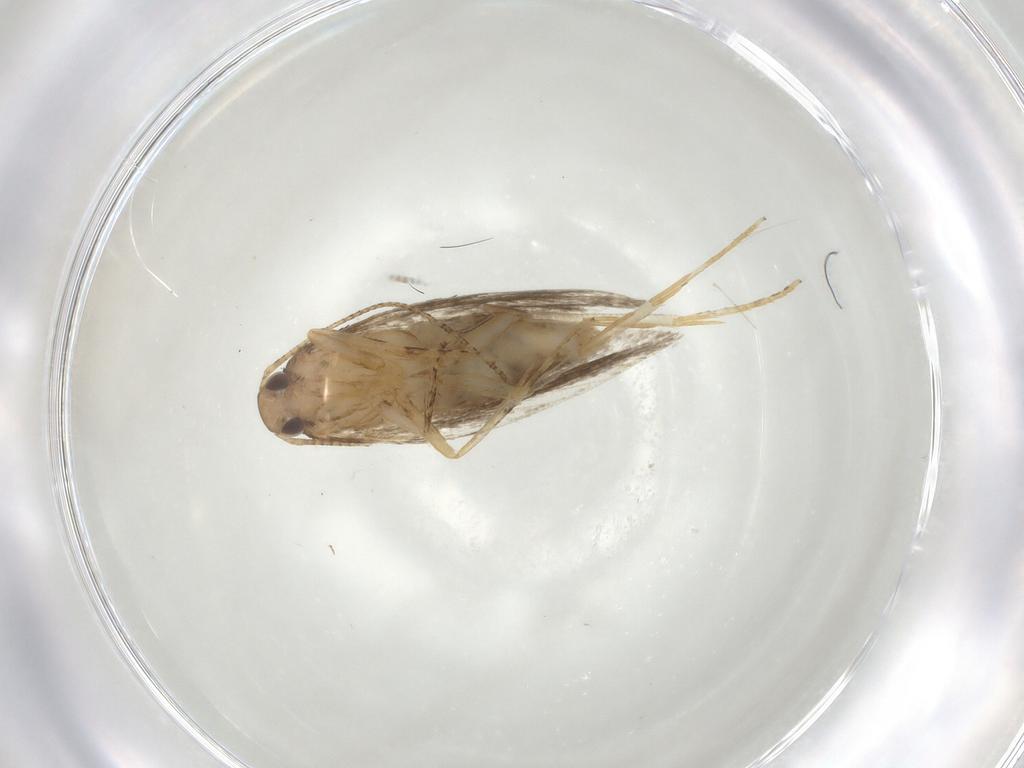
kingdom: Animalia
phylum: Arthropoda
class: Insecta
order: Lepidoptera
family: Gelechiidae
